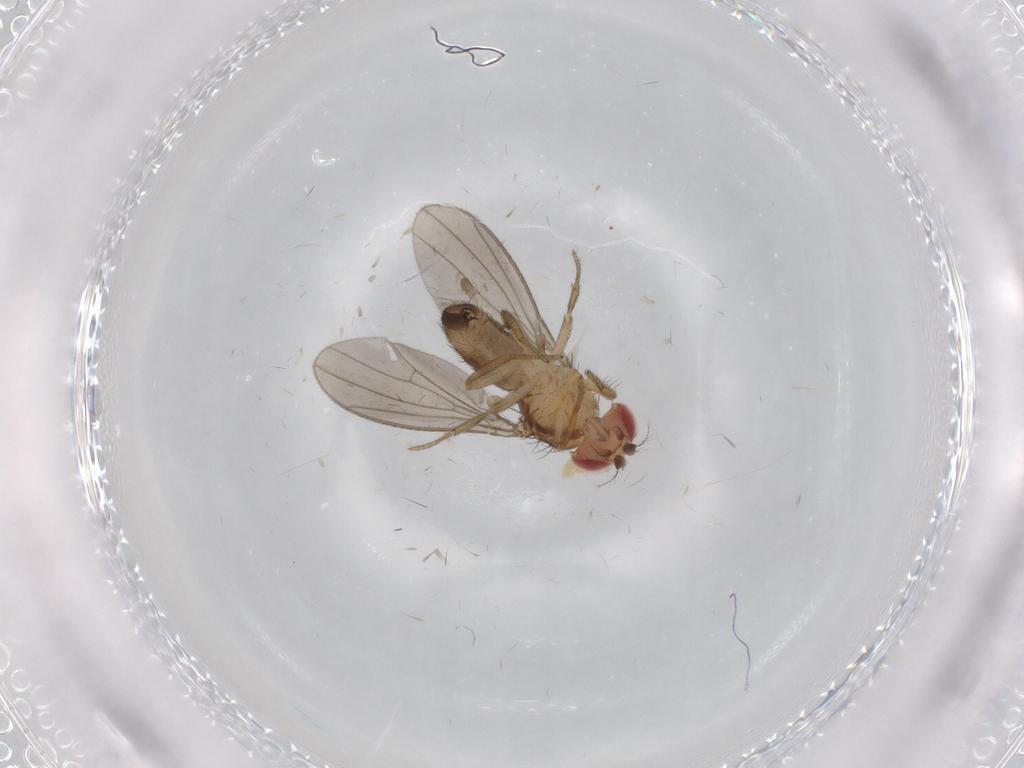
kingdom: Animalia
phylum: Arthropoda
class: Insecta
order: Diptera
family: Drosophilidae
